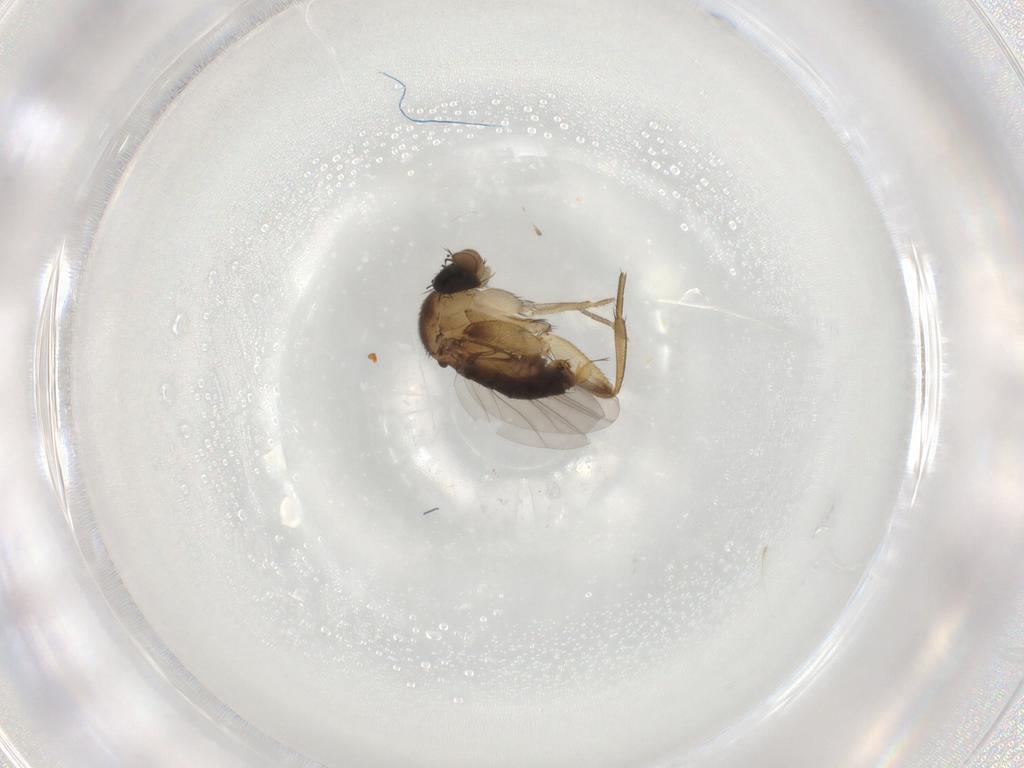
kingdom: Animalia
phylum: Arthropoda
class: Insecta
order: Diptera
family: Phoridae
